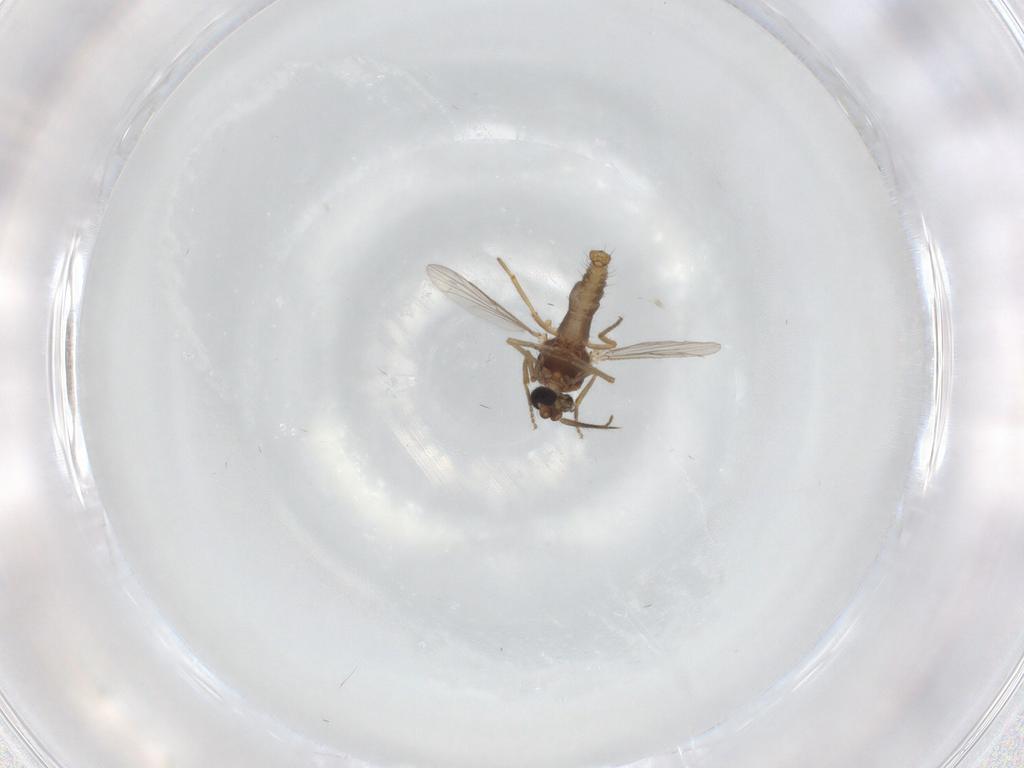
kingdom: Animalia
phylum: Arthropoda
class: Insecta
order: Diptera
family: Ceratopogonidae
